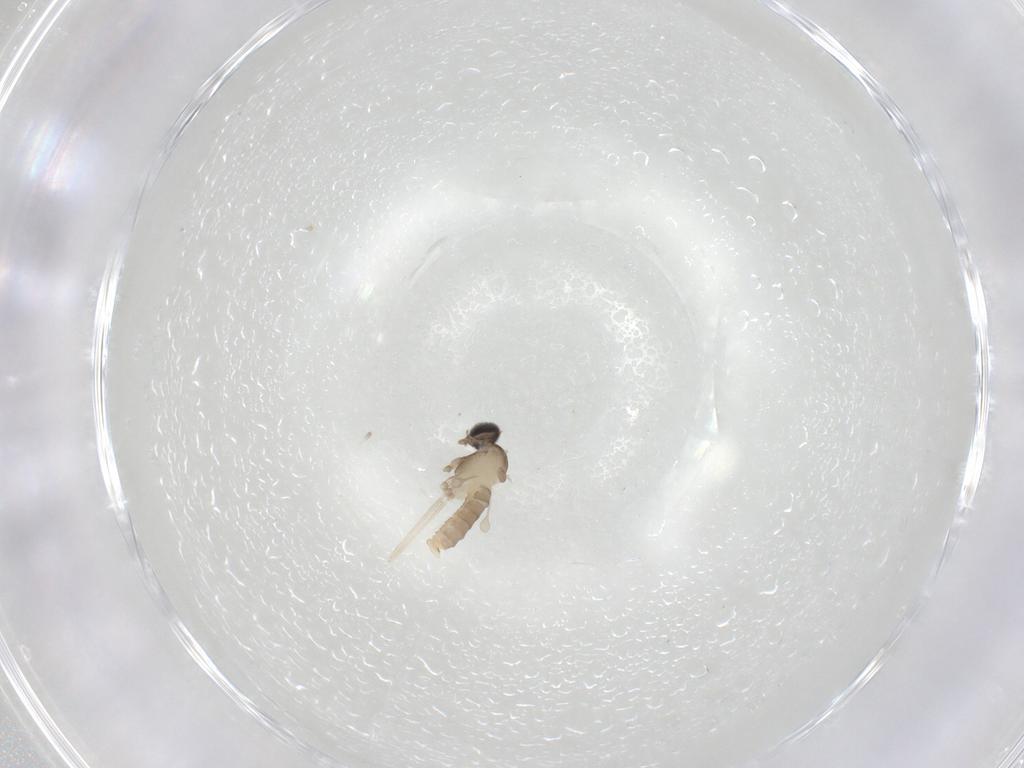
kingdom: Animalia
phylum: Arthropoda
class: Insecta
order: Diptera
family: Cecidomyiidae
